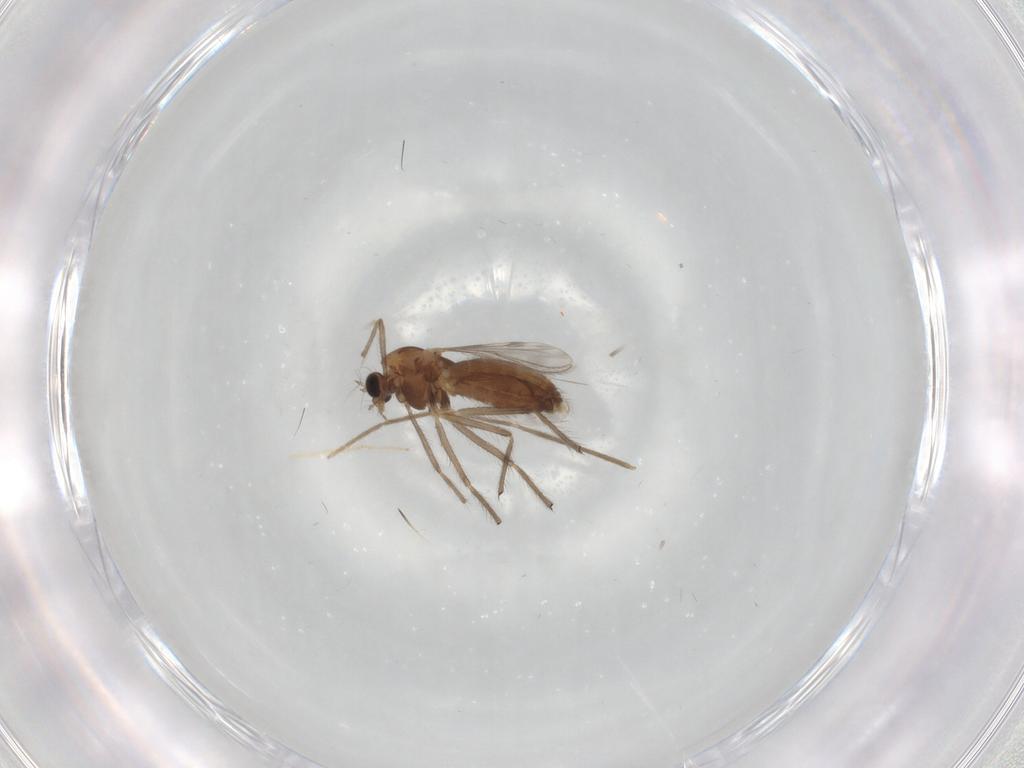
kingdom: Animalia
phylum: Arthropoda
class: Insecta
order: Diptera
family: Chironomidae
